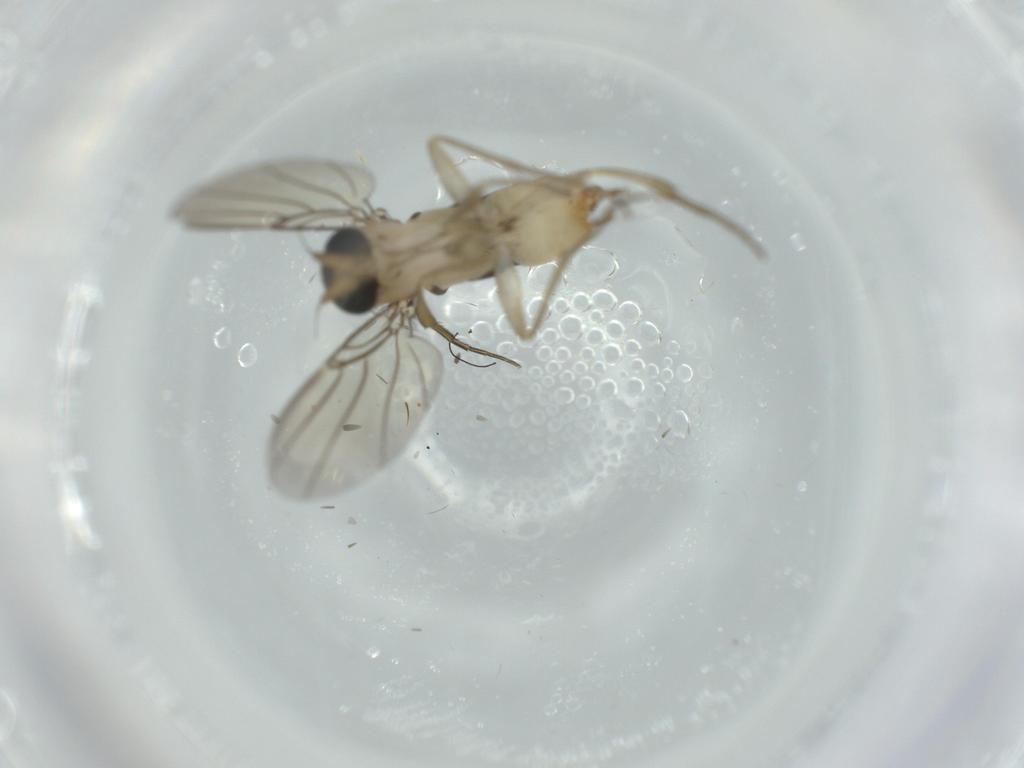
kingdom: Animalia
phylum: Arthropoda
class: Insecta
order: Diptera
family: Phoridae
